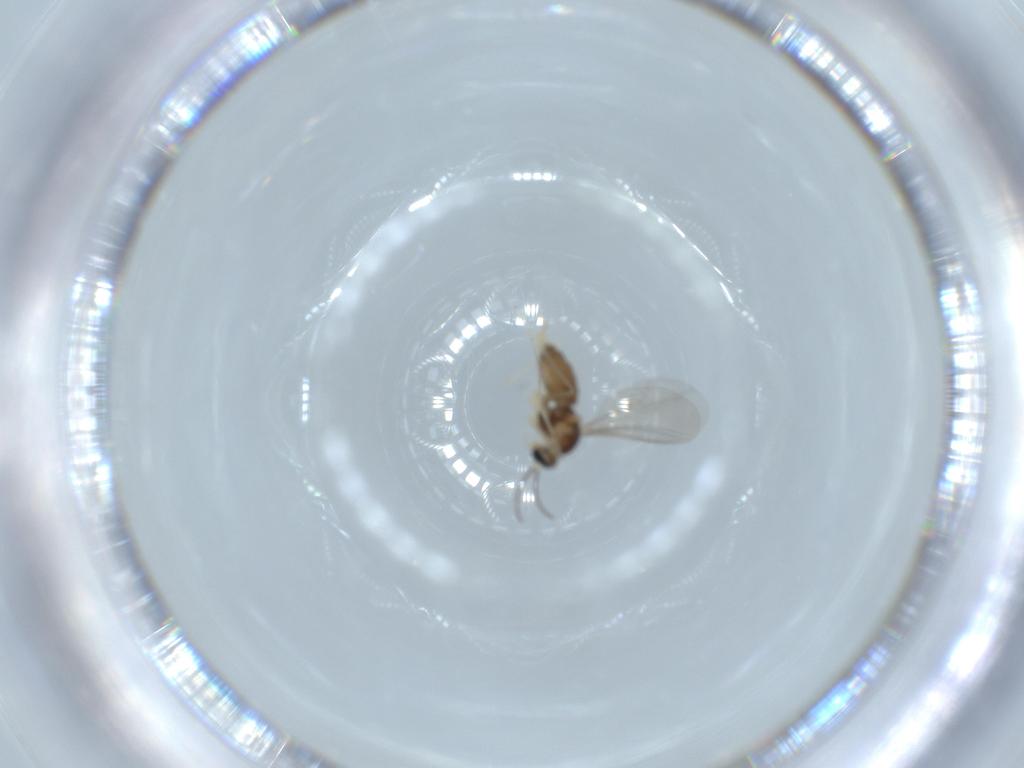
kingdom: Animalia
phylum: Arthropoda
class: Insecta
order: Diptera
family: Cecidomyiidae
